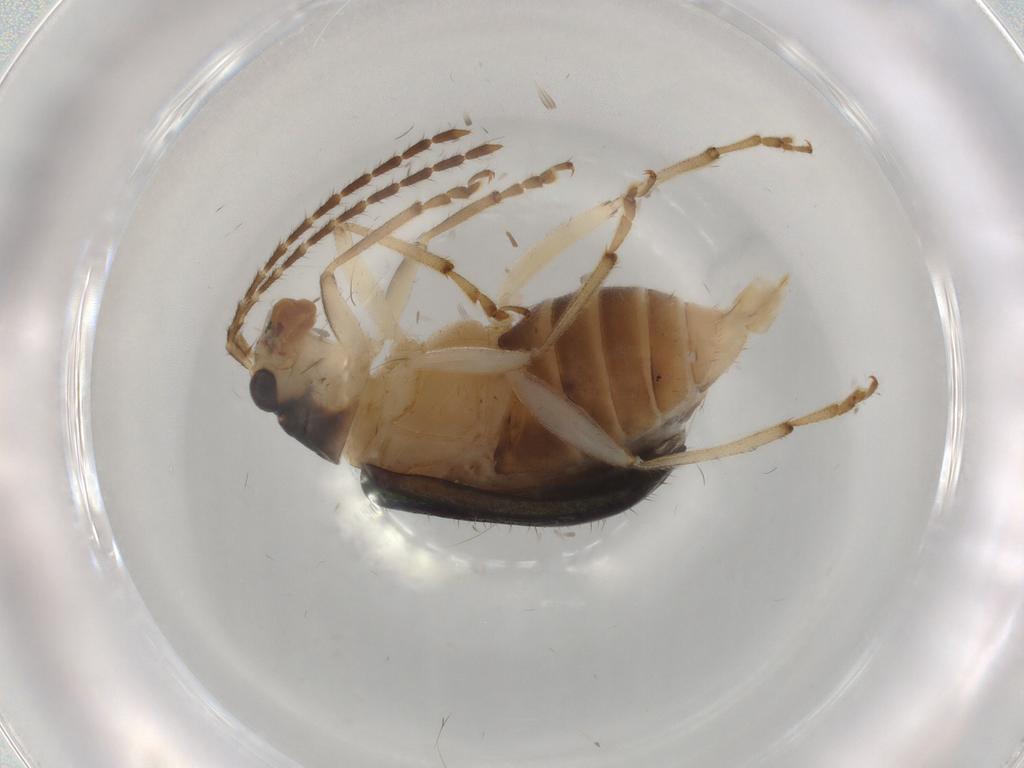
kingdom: Animalia
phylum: Arthropoda
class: Insecta
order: Coleoptera
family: Chrysomelidae
